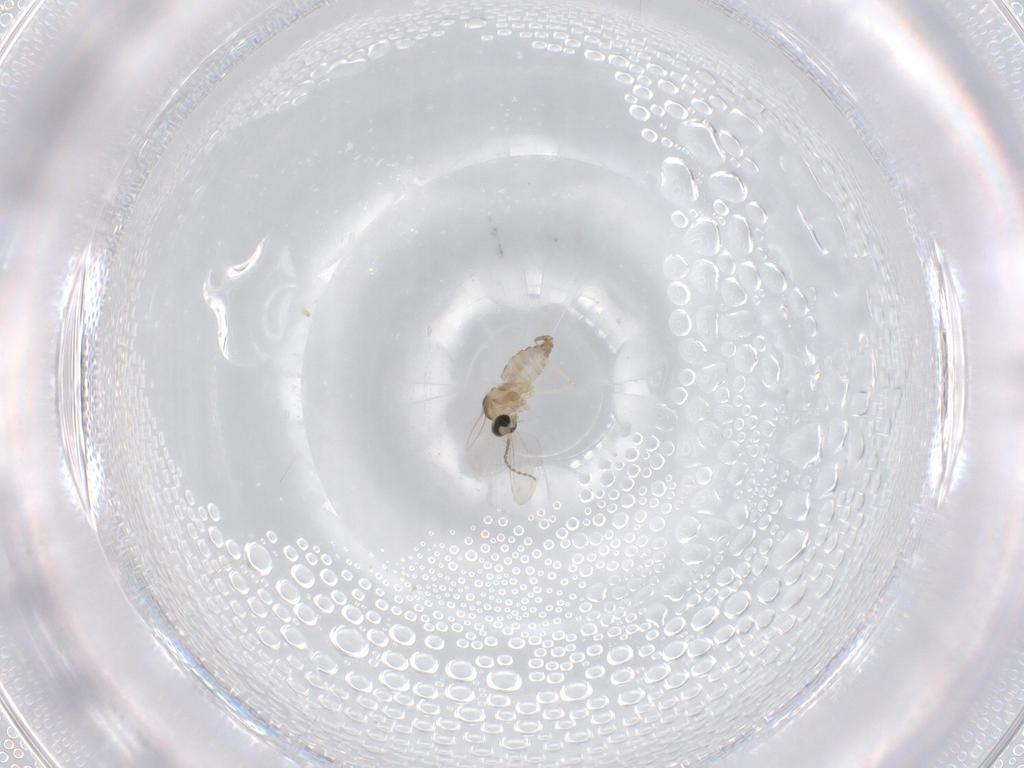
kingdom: Animalia
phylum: Arthropoda
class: Insecta
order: Diptera
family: Cecidomyiidae
